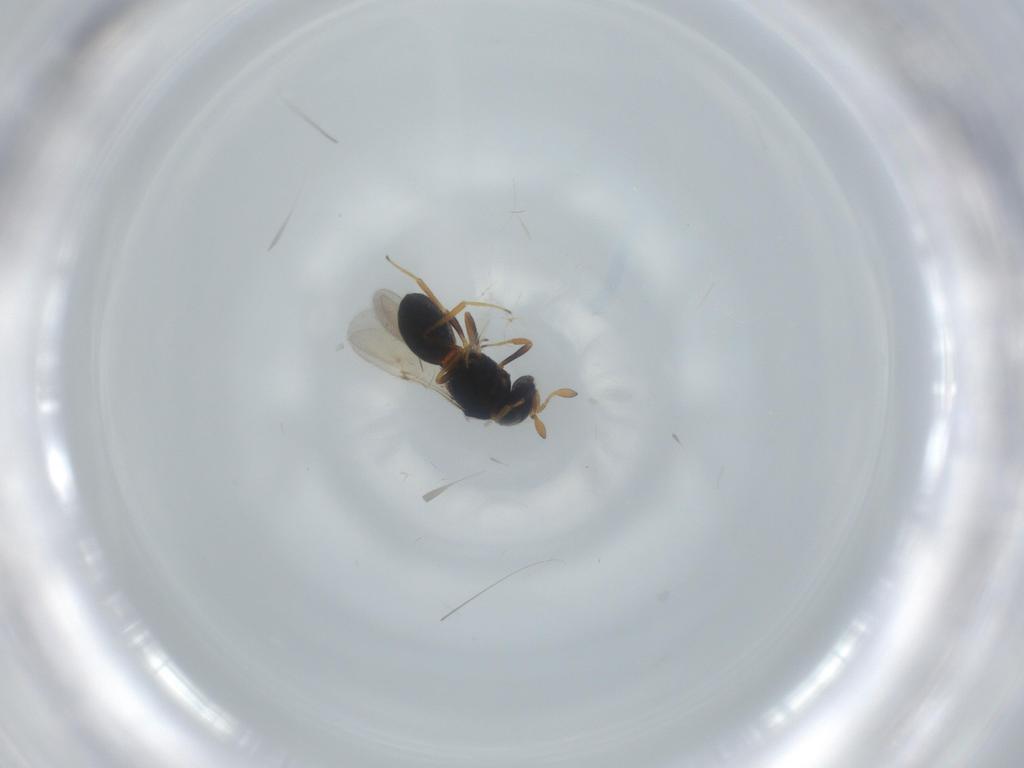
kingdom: Animalia
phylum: Arthropoda
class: Insecta
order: Hymenoptera
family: Scelionidae
